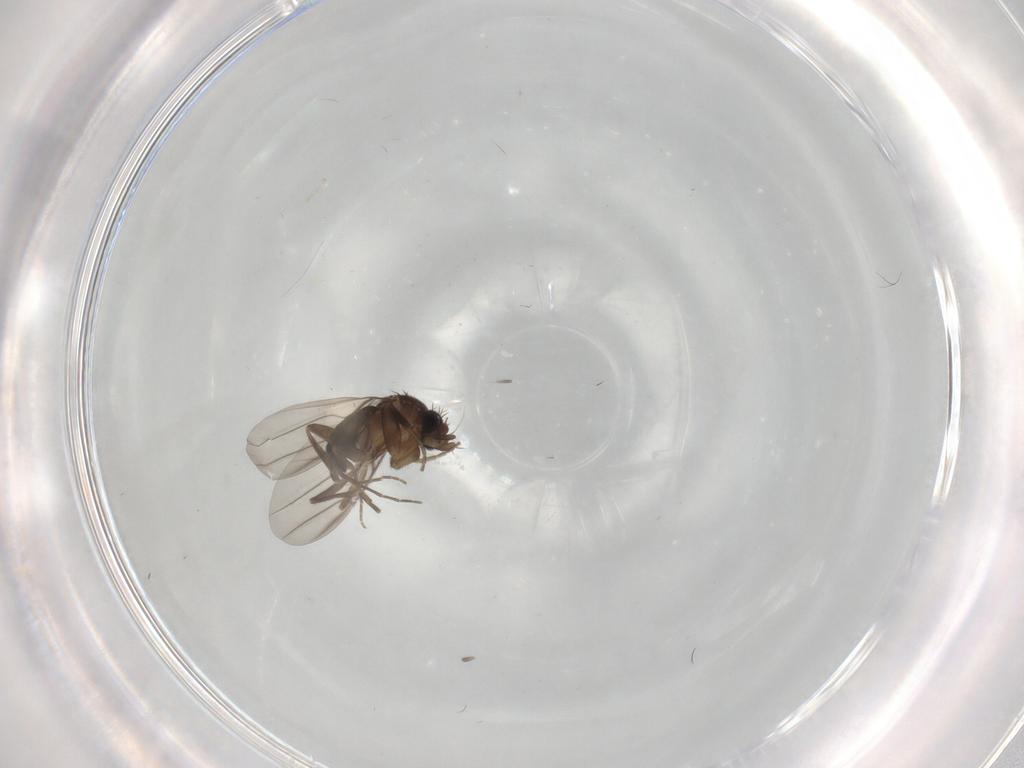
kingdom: Animalia
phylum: Arthropoda
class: Insecta
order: Diptera
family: Phoridae
